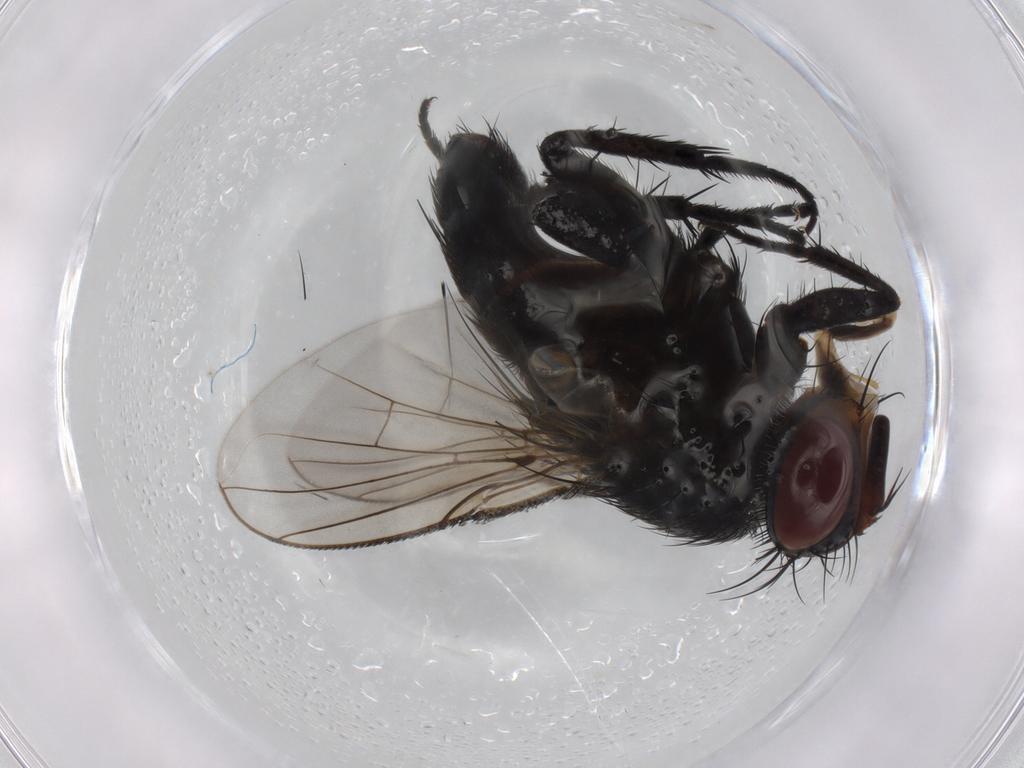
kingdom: Animalia
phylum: Arthropoda
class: Insecta
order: Diptera
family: Tachinidae
